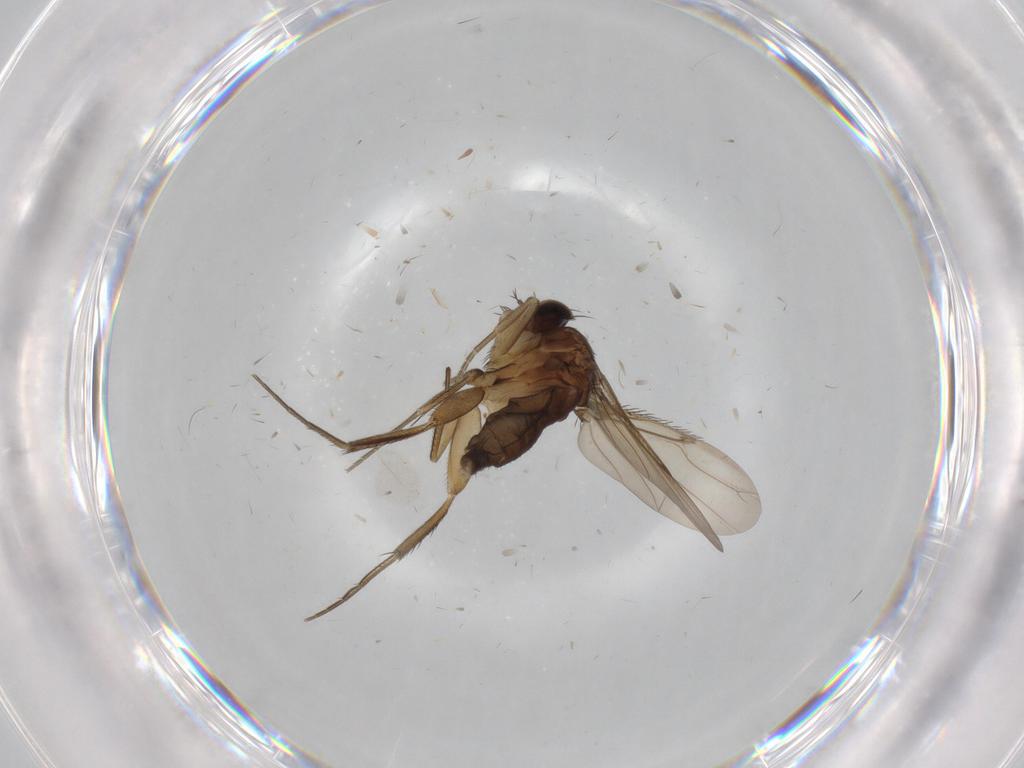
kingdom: Animalia
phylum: Arthropoda
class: Insecta
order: Diptera
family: Phoridae
